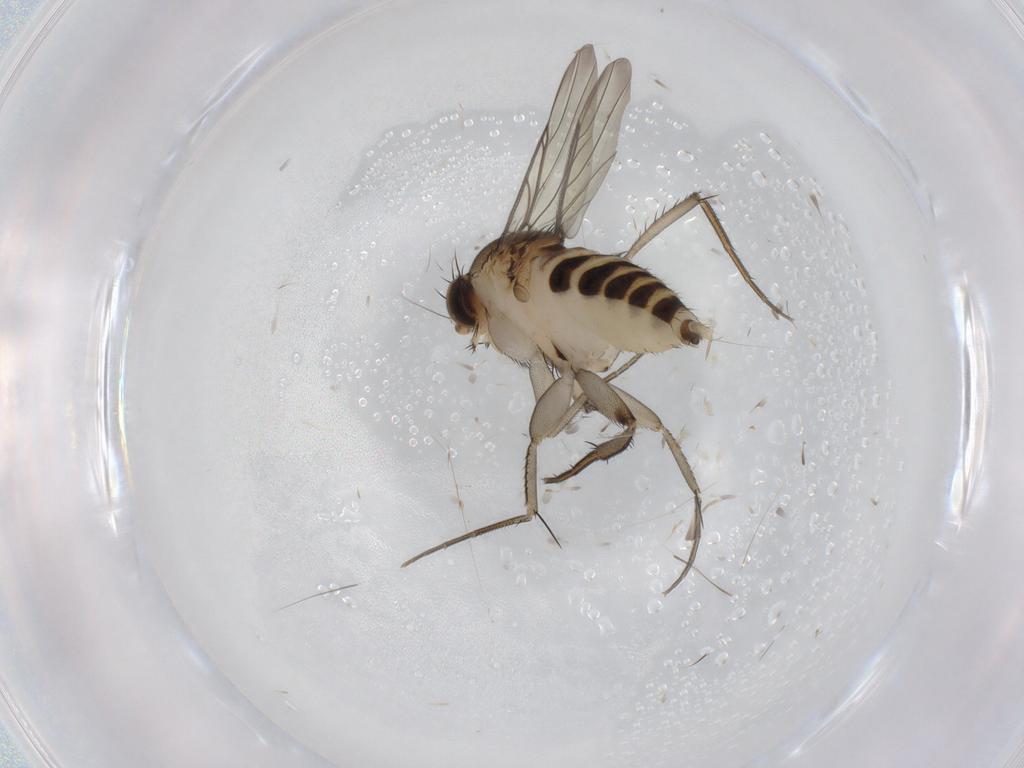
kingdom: Animalia
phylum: Arthropoda
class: Insecta
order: Diptera
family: Phoridae
